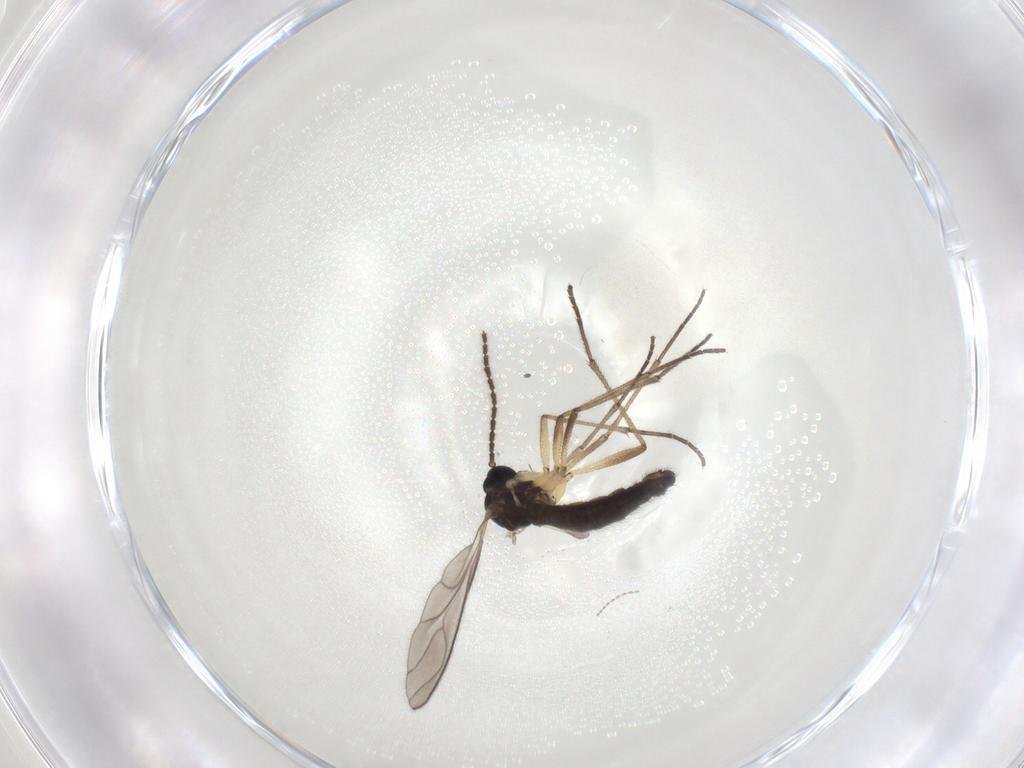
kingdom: Animalia
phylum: Arthropoda
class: Insecta
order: Diptera
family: Sciaridae
